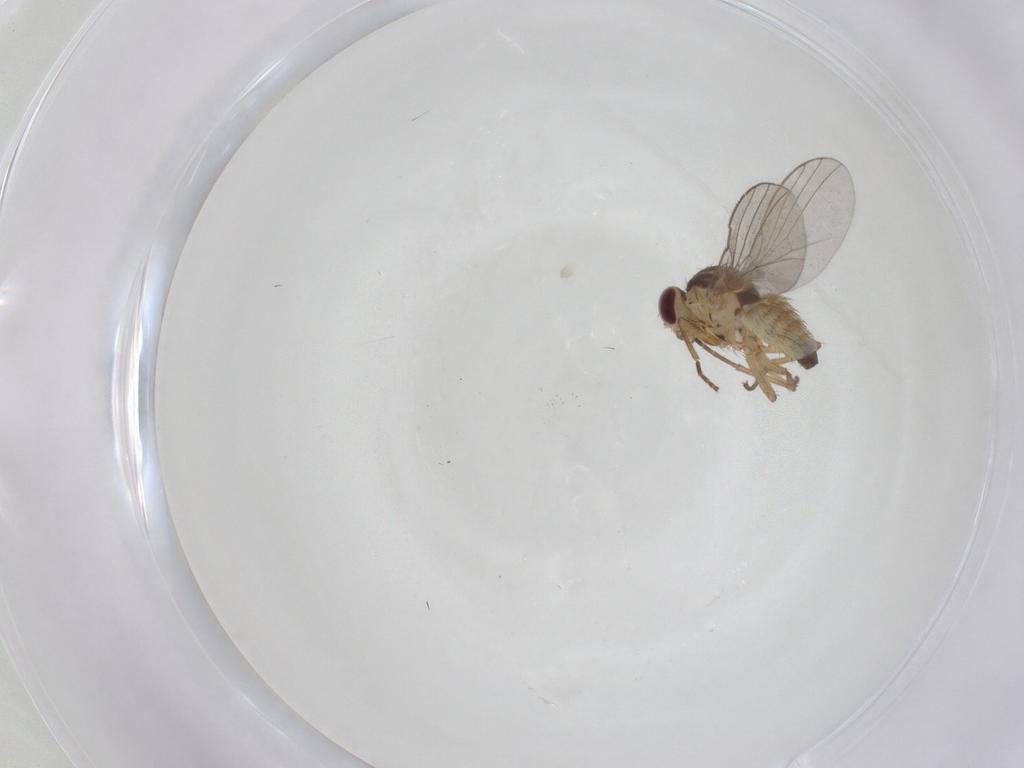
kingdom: Animalia
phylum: Arthropoda
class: Insecta
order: Diptera
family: Agromyzidae
